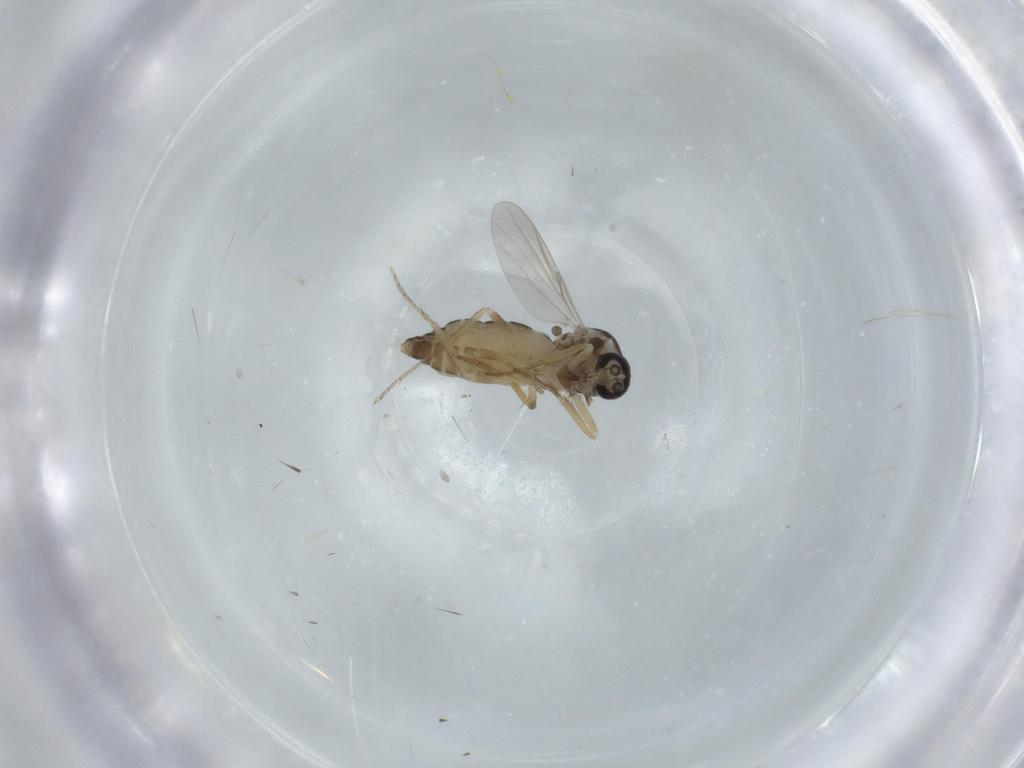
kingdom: Animalia
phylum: Arthropoda
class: Insecta
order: Diptera
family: Ceratopogonidae
